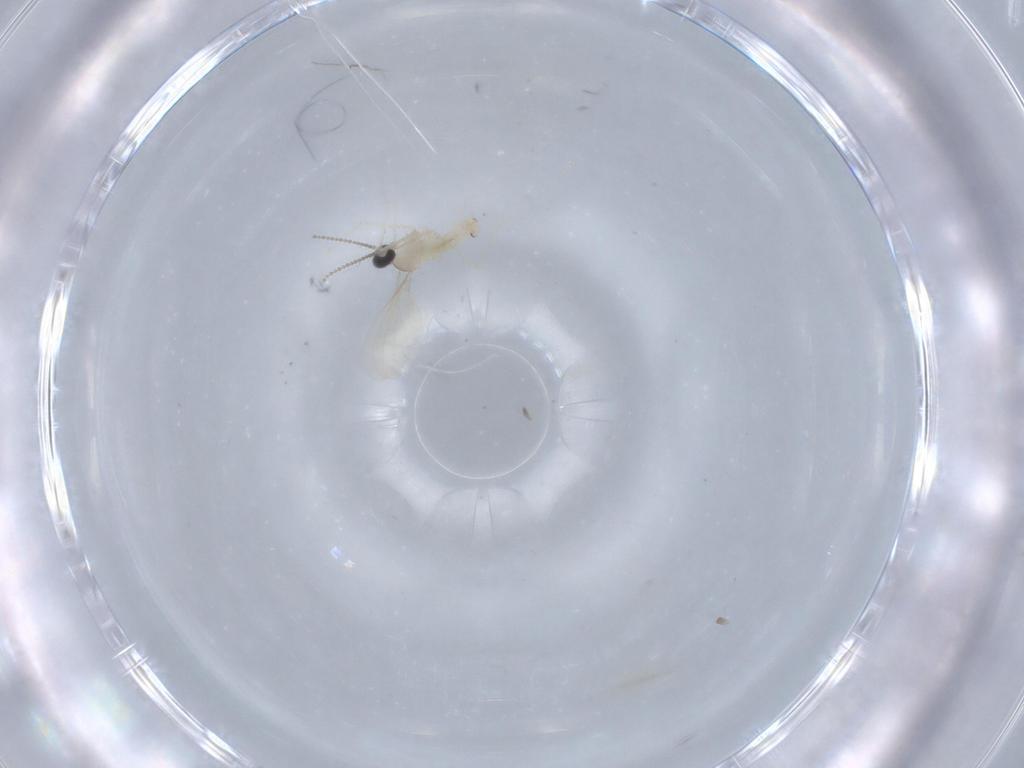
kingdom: Animalia
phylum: Arthropoda
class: Insecta
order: Diptera
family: Cecidomyiidae
